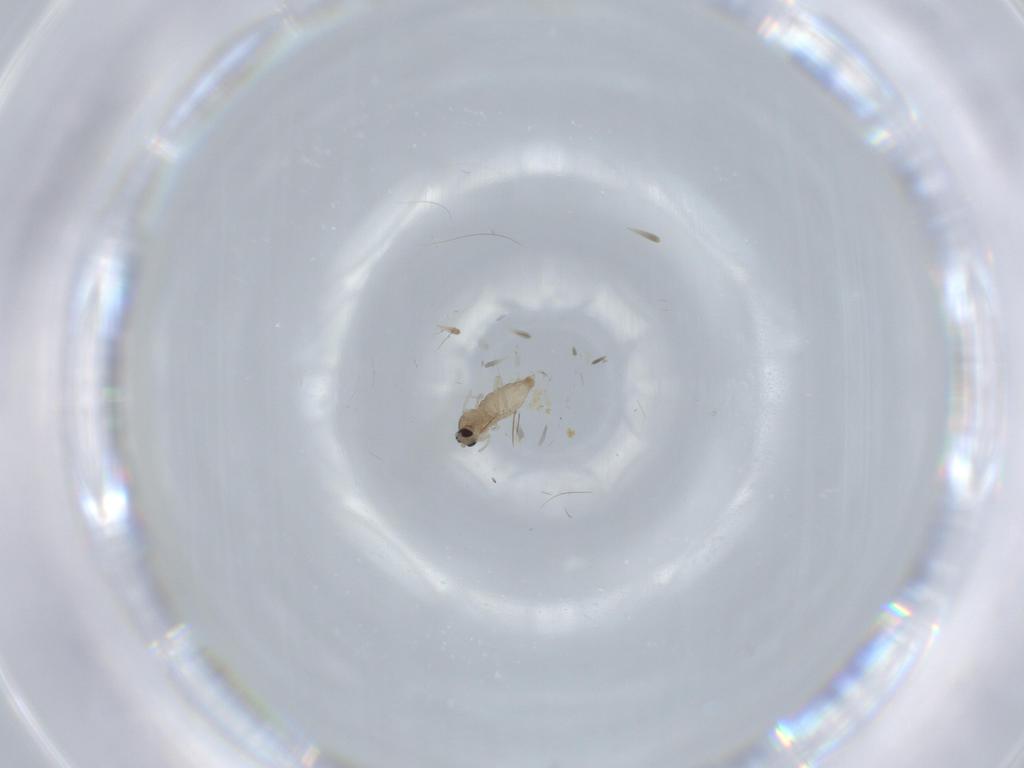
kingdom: Animalia
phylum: Arthropoda
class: Insecta
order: Diptera
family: Cecidomyiidae
